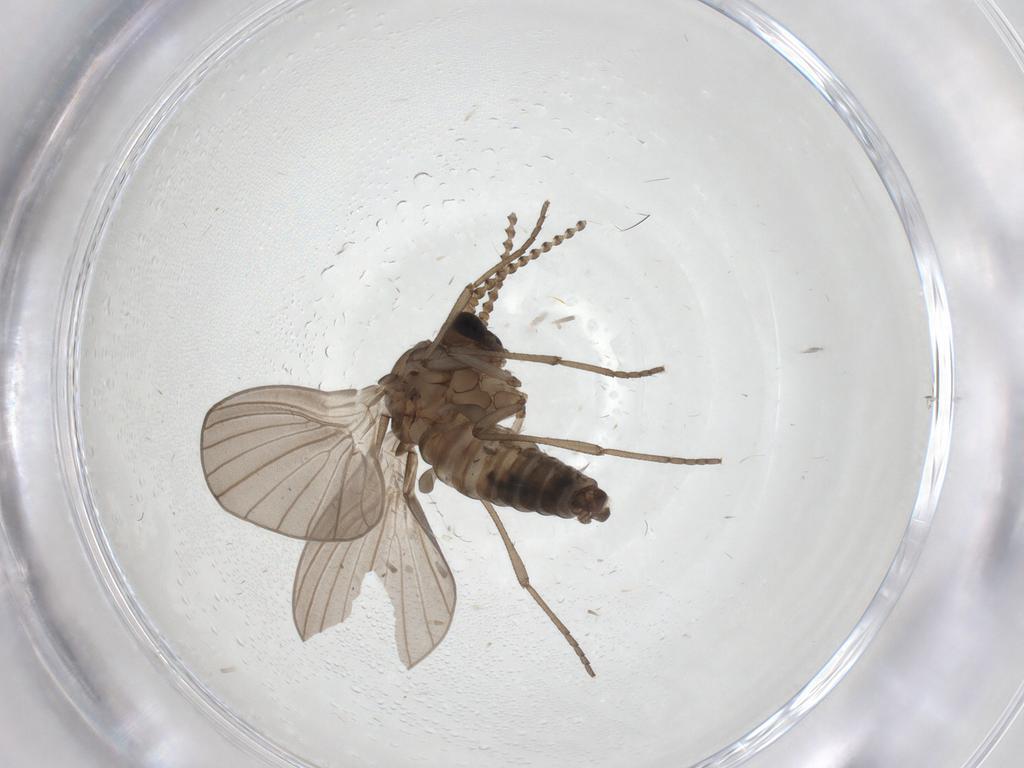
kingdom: Animalia
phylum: Arthropoda
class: Insecta
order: Diptera
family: Psychodidae
